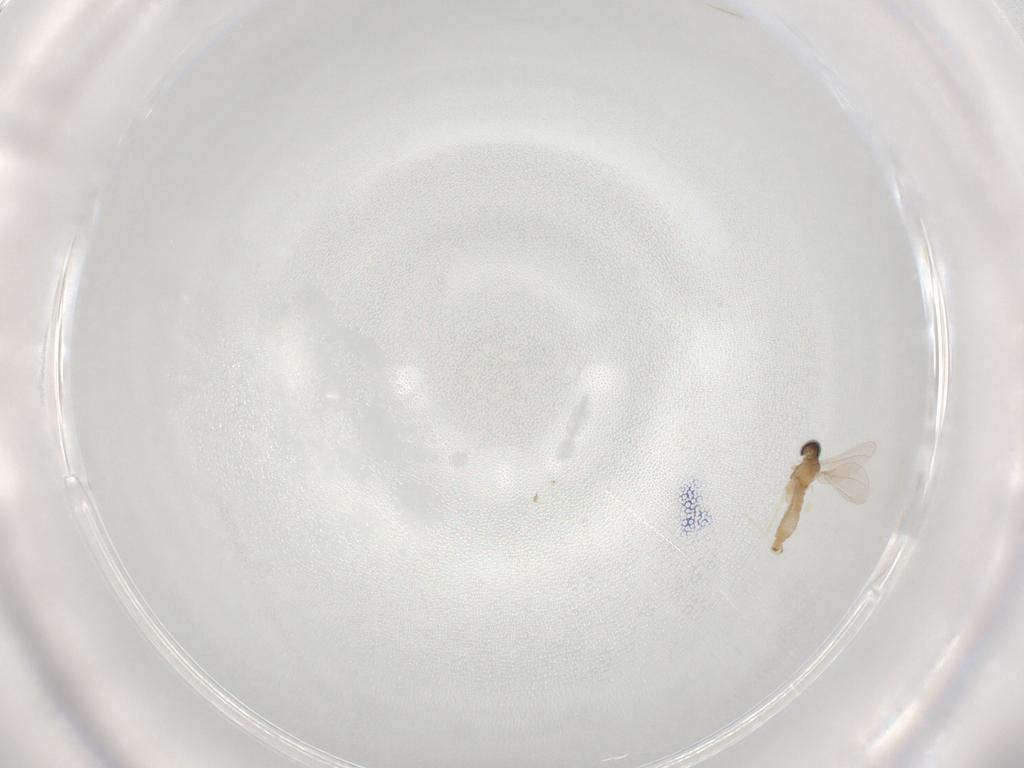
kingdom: Animalia
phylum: Arthropoda
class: Insecta
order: Diptera
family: Cecidomyiidae
